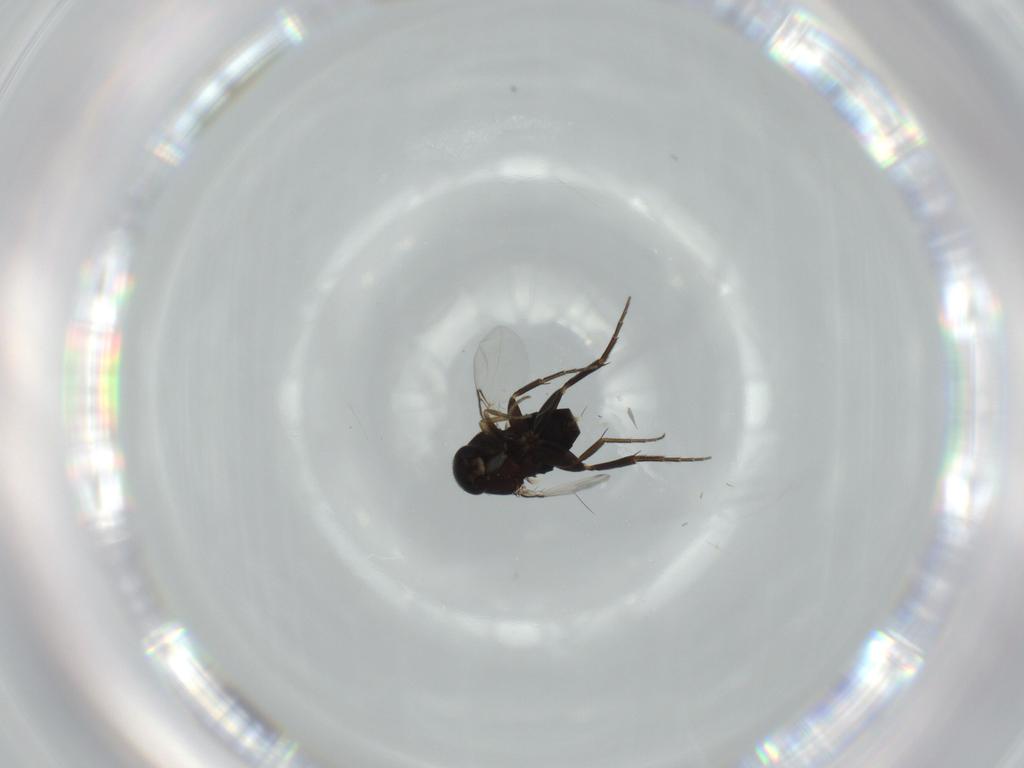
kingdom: Animalia
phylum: Arthropoda
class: Insecta
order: Diptera
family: Phoridae
